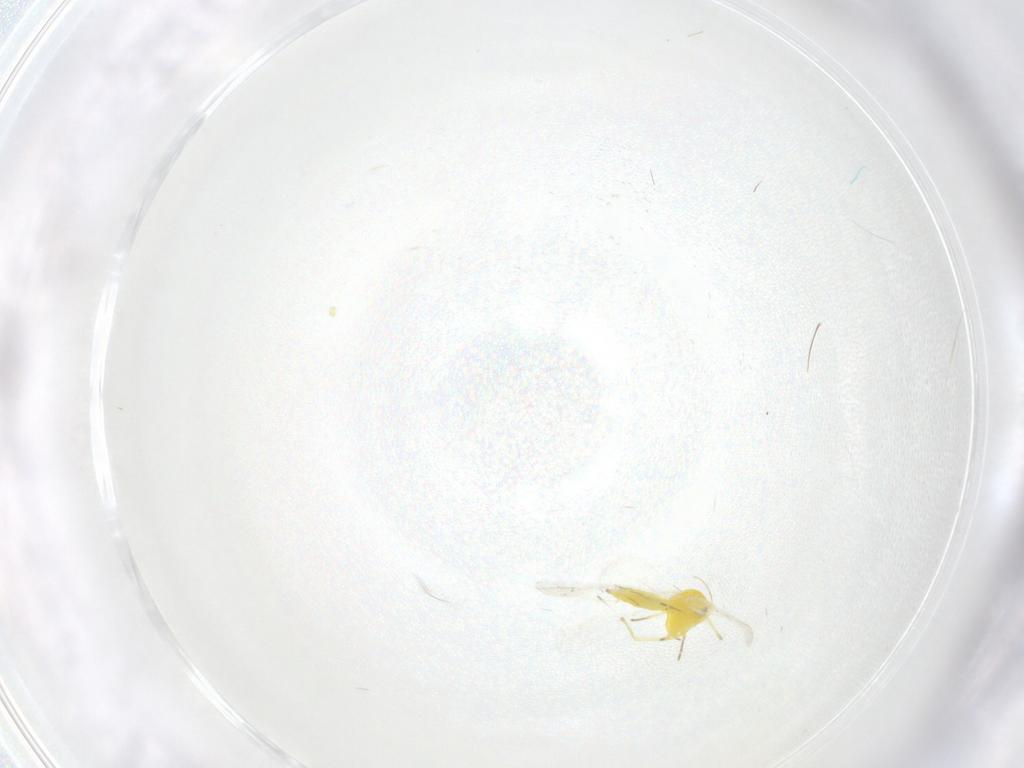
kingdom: Animalia
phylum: Arthropoda
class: Insecta
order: Hemiptera
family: Aleyrodidae
